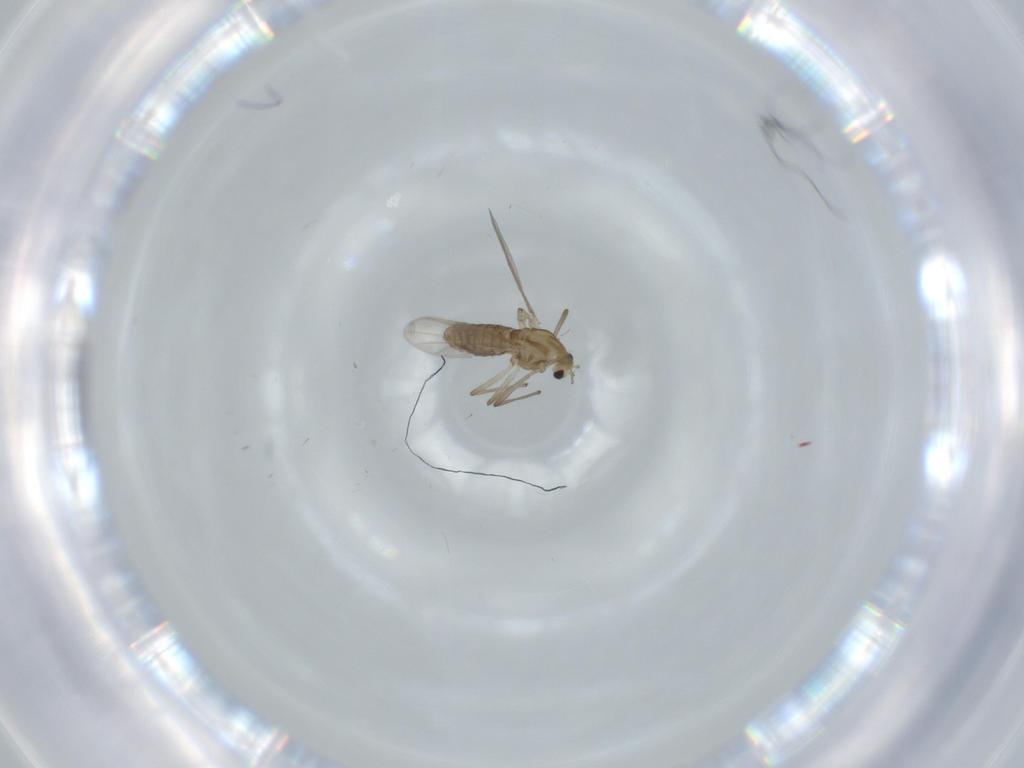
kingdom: Animalia
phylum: Arthropoda
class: Insecta
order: Diptera
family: Chironomidae
